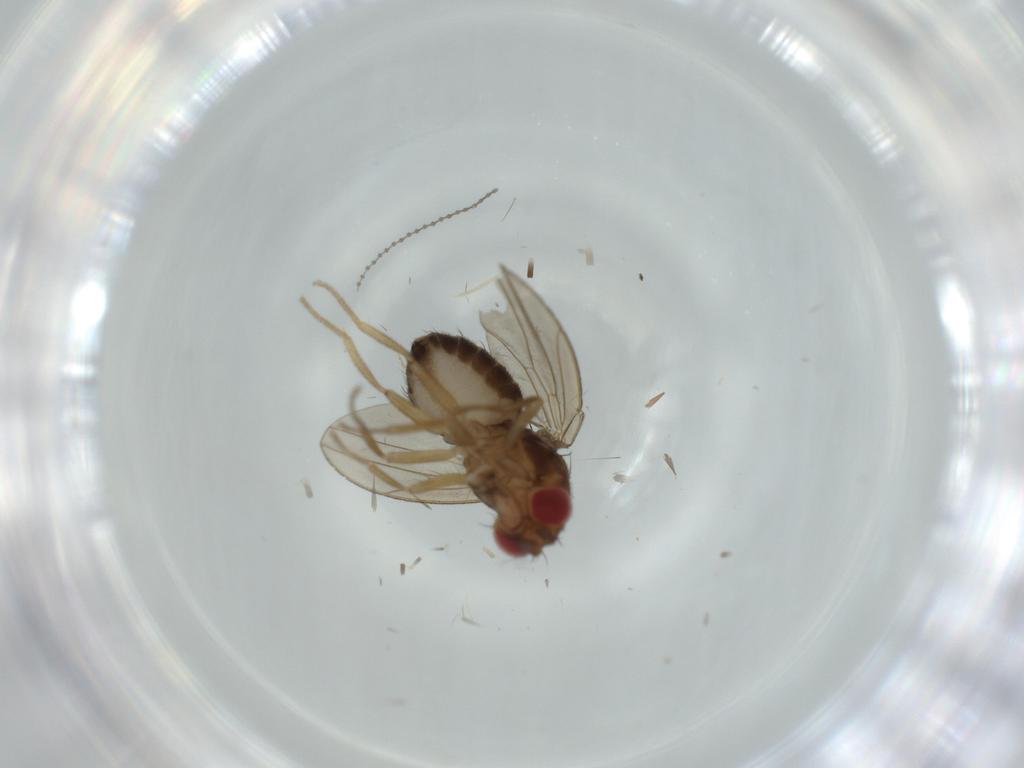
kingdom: Animalia
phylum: Arthropoda
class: Insecta
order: Diptera
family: Drosophilidae
